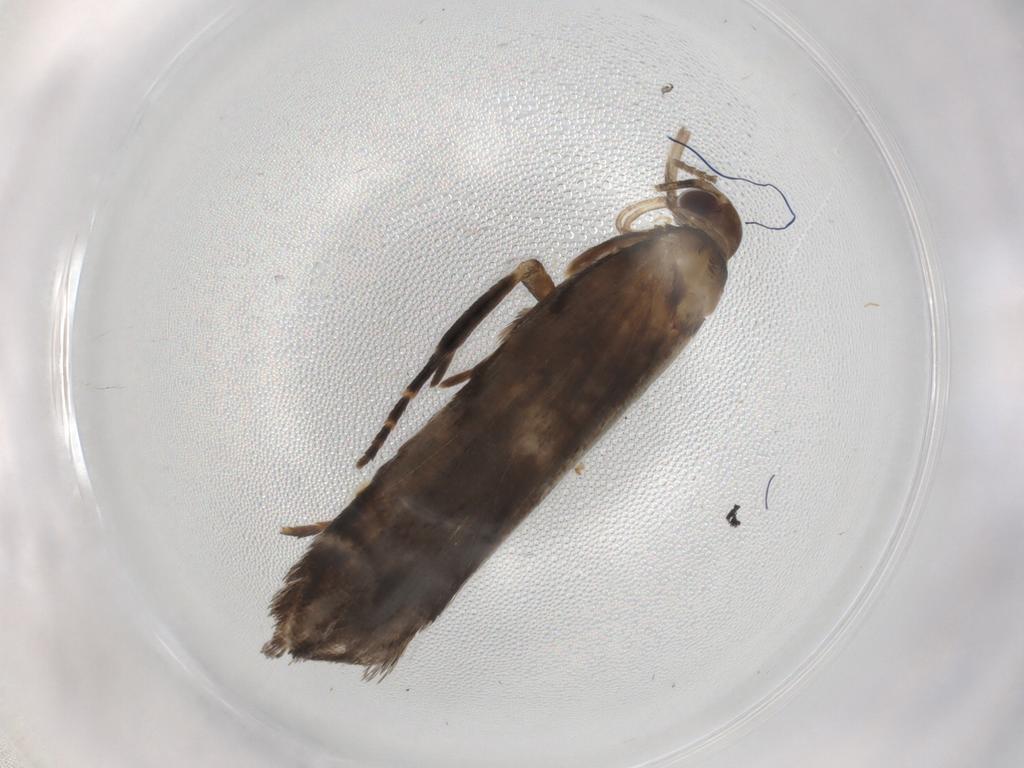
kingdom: Animalia
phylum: Arthropoda
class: Insecta
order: Lepidoptera
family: Gelechiidae
